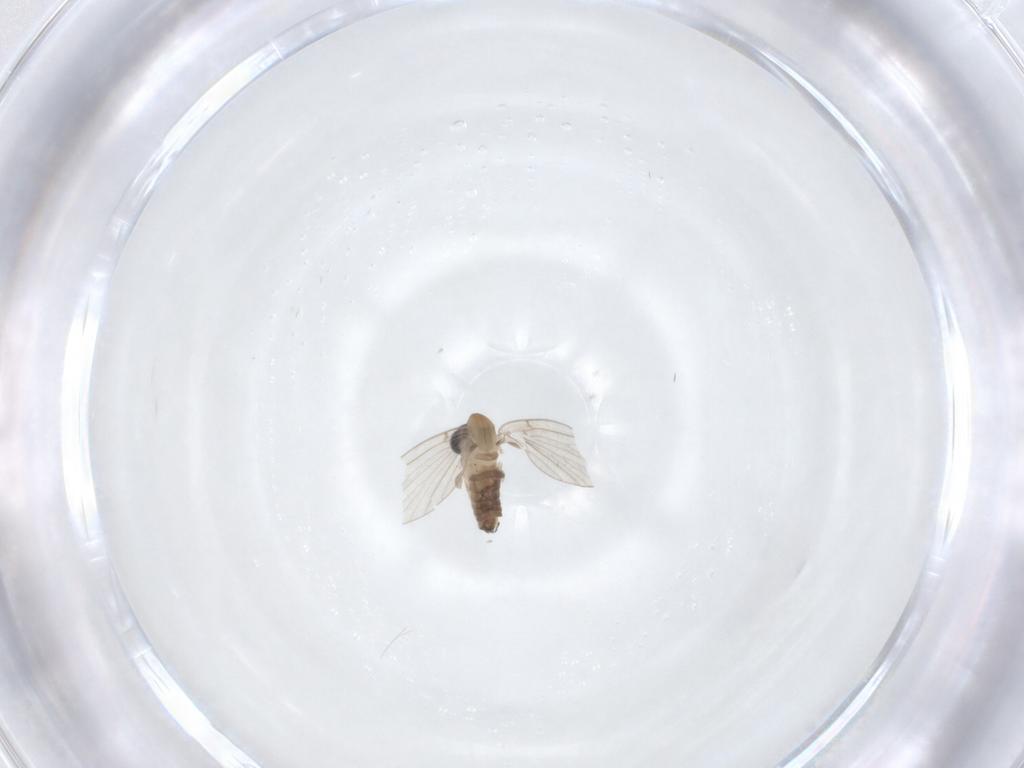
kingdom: Animalia
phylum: Arthropoda
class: Insecta
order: Diptera
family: Psychodidae
